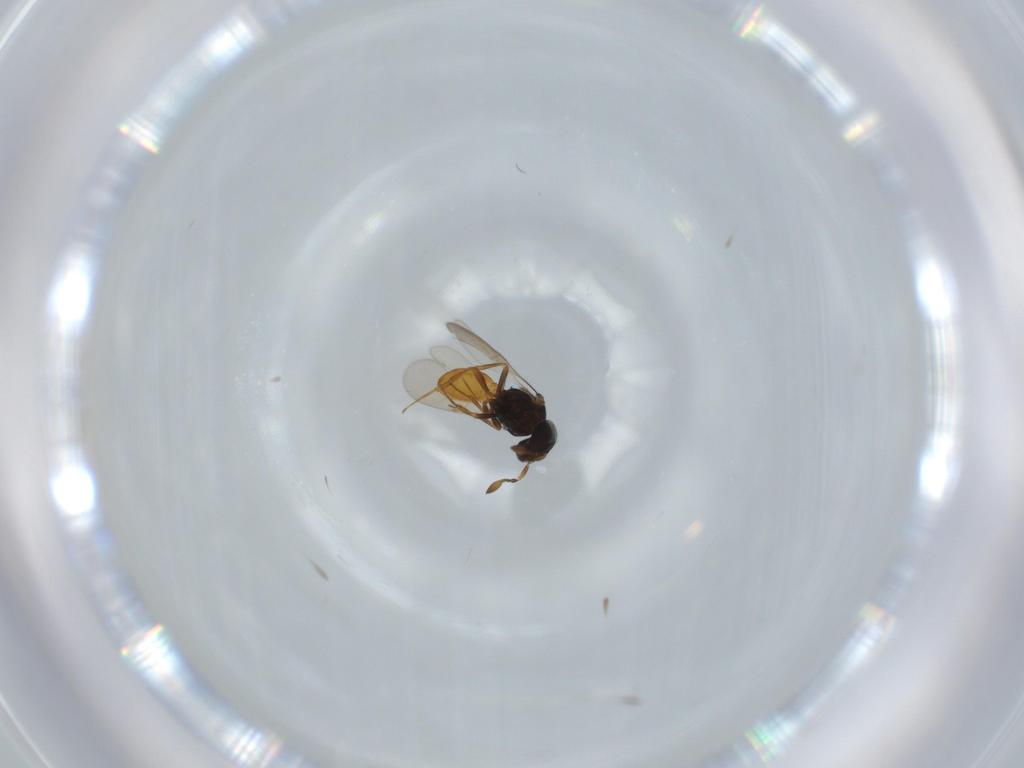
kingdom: Animalia
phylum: Arthropoda
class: Insecta
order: Hymenoptera
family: Scelionidae
